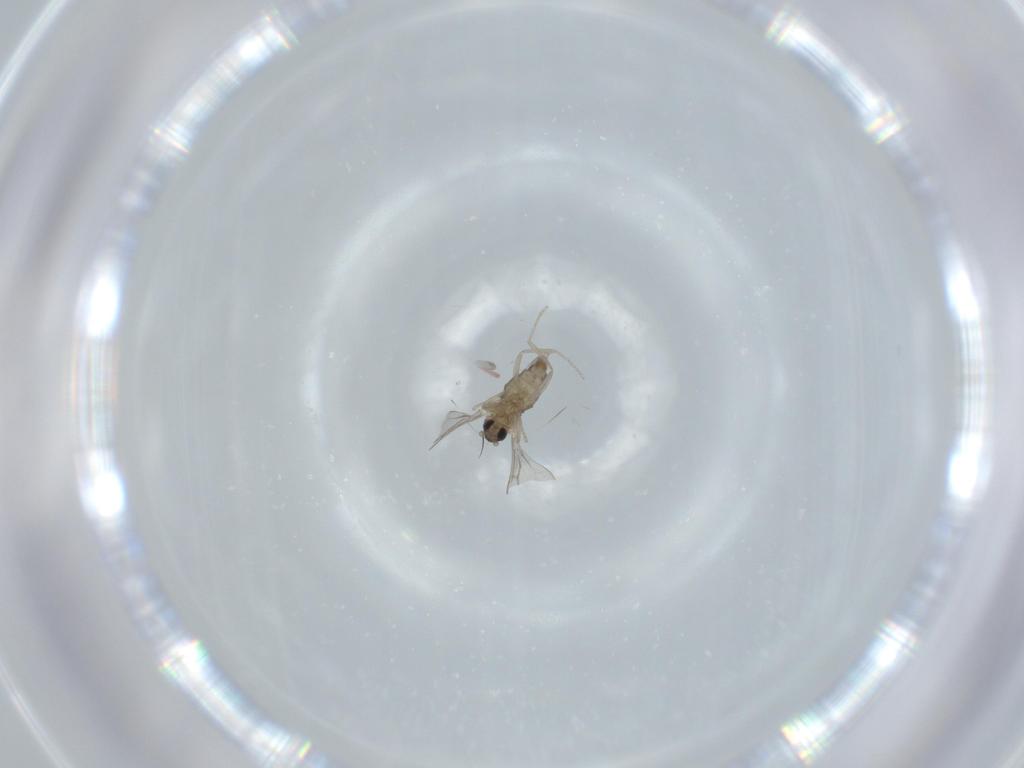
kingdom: Animalia
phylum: Arthropoda
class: Insecta
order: Diptera
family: Cecidomyiidae
